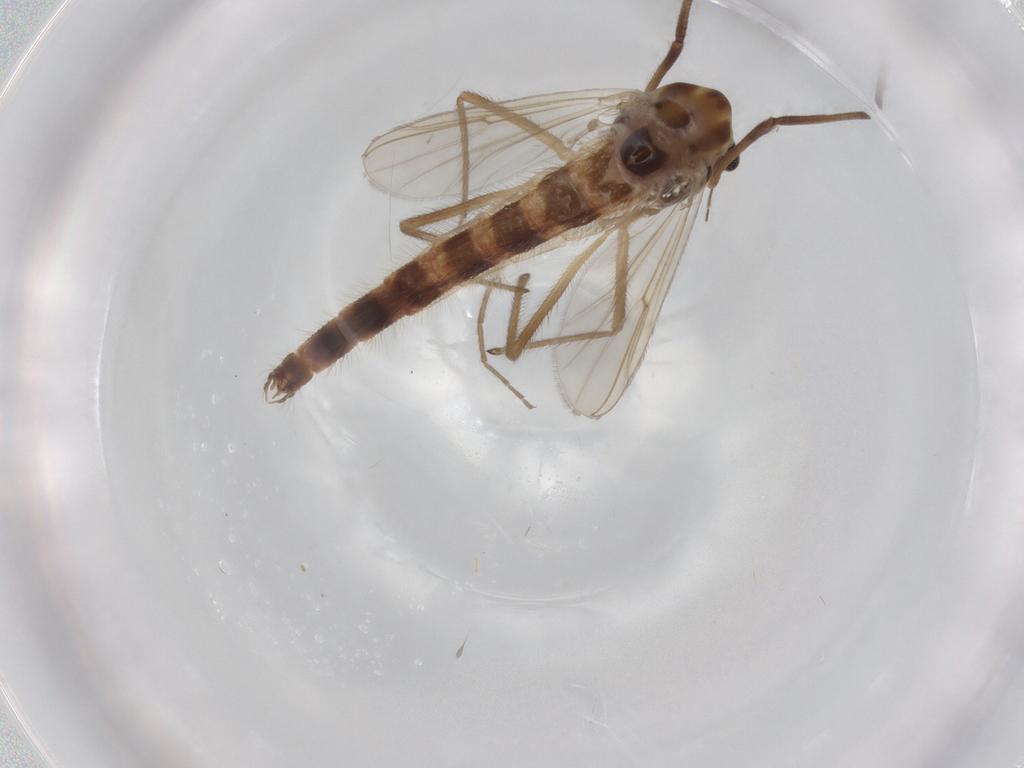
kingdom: Animalia
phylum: Arthropoda
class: Insecta
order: Diptera
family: Chironomidae
